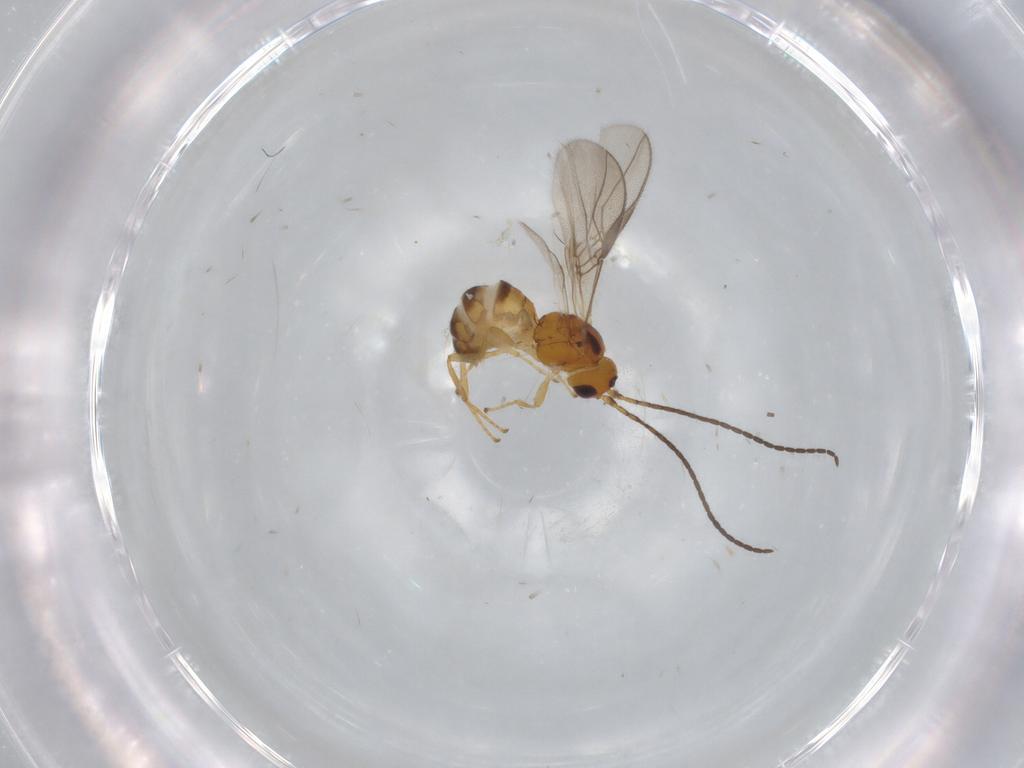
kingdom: Animalia
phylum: Arthropoda
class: Insecta
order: Hymenoptera
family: Braconidae
